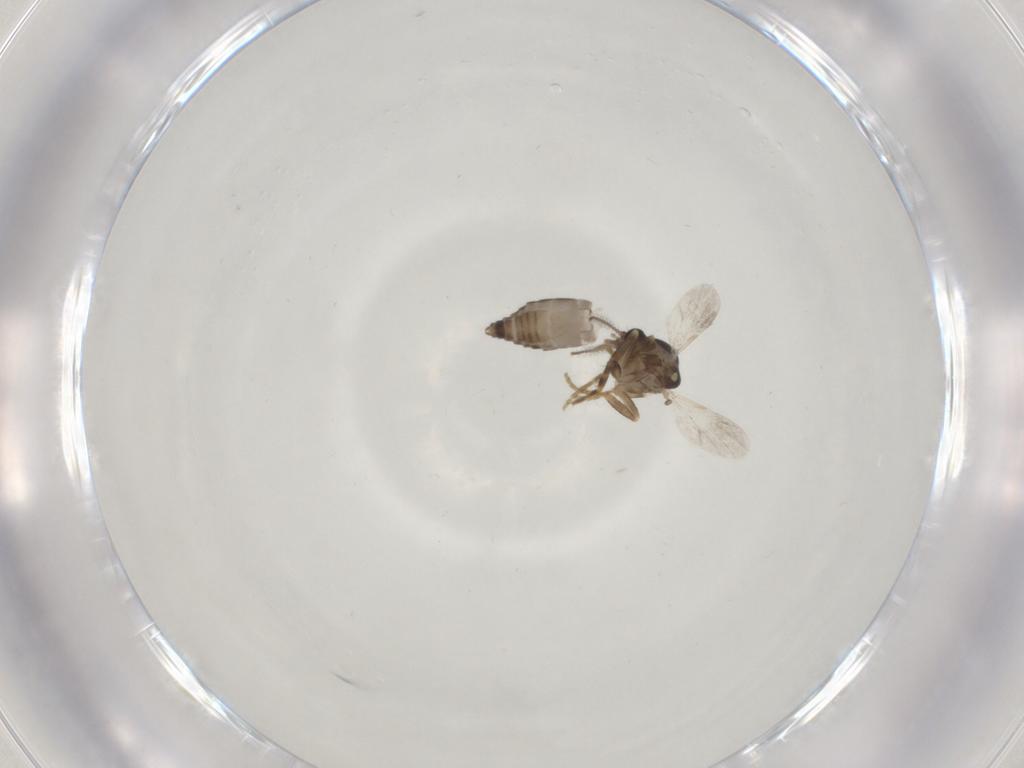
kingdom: Animalia
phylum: Arthropoda
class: Insecta
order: Diptera
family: Ceratopogonidae
